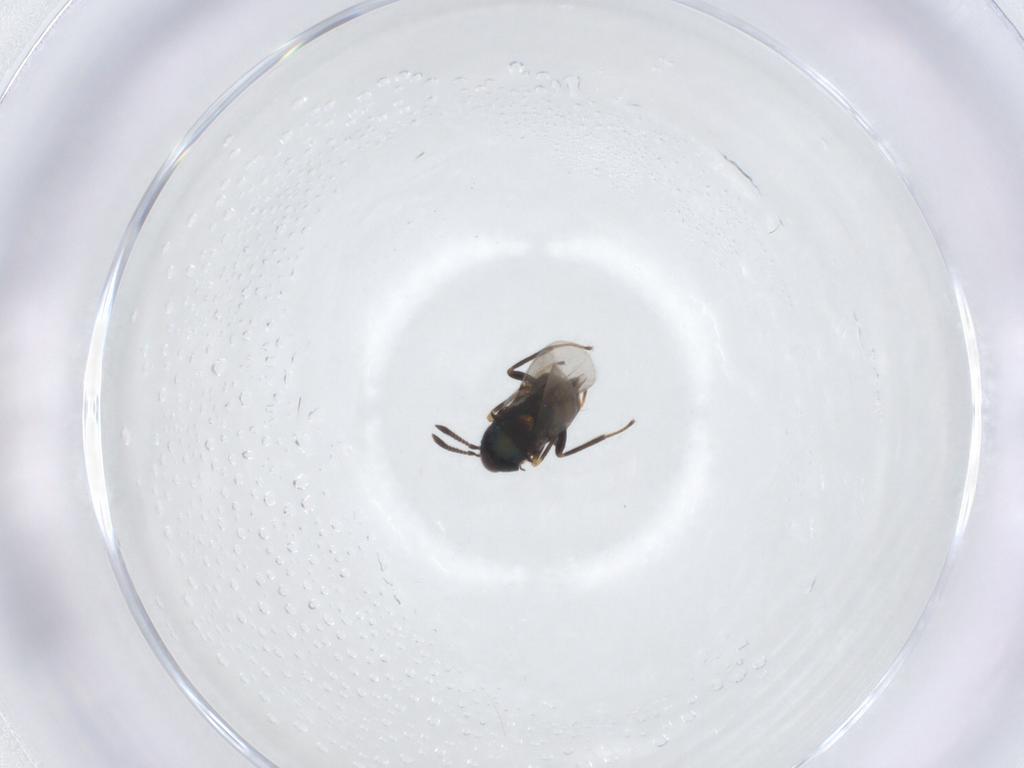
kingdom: Animalia
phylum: Arthropoda
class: Insecta
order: Hymenoptera
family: Encyrtidae
